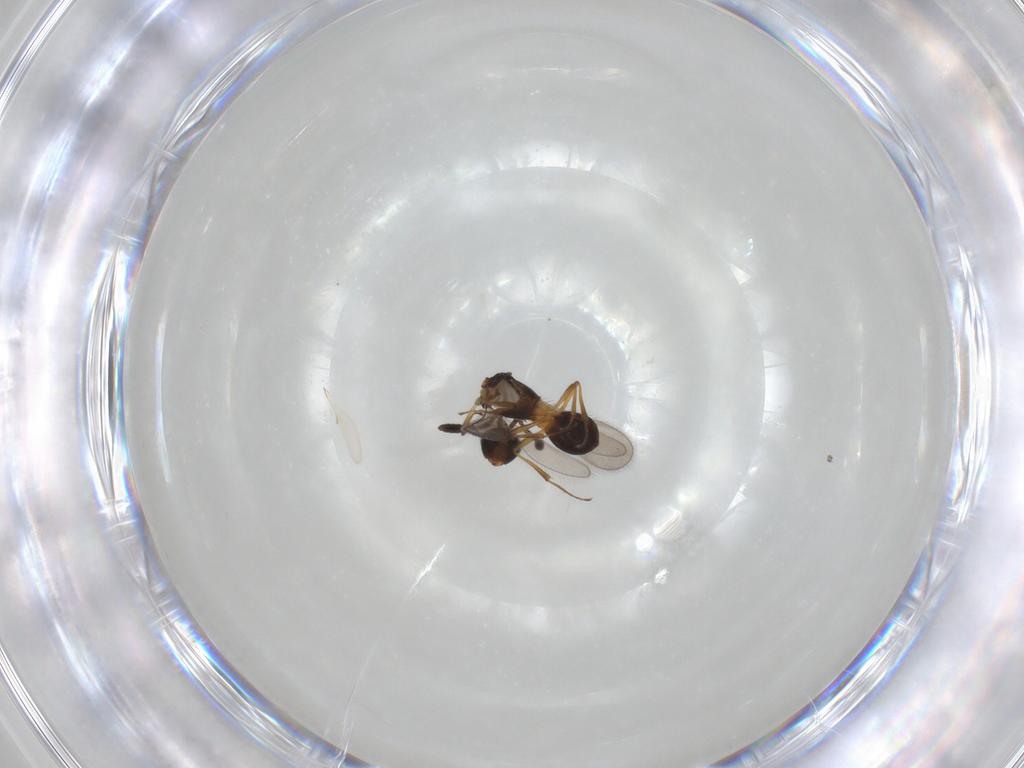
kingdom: Animalia
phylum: Arthropoda
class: Insecta
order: Hymenoptera
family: Scelionidae
